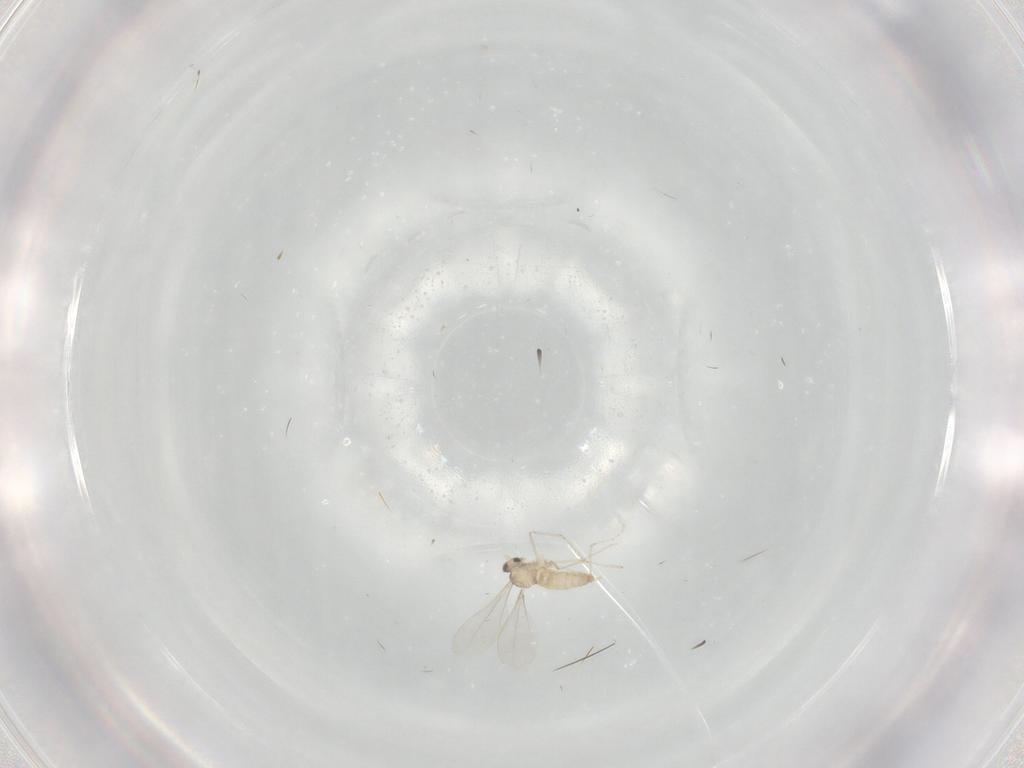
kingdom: Animalia
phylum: Arthropoda
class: Insecta
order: Diptera
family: Cecidomyiidae
